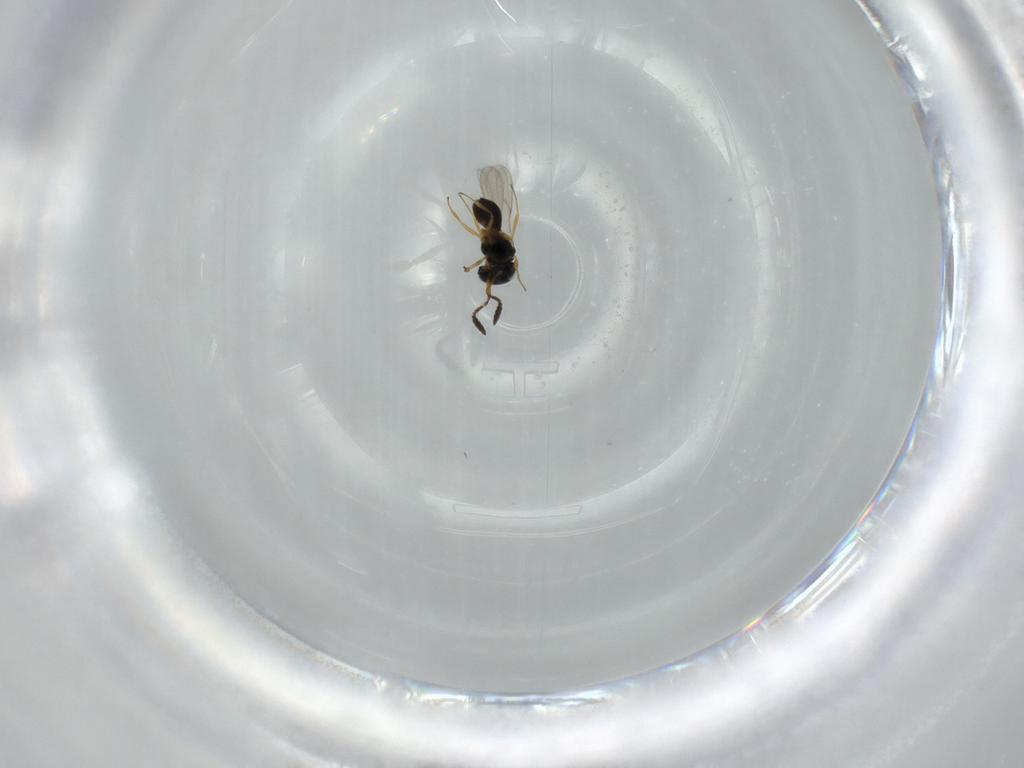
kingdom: Animalia
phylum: Arthropoda
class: Insecta
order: Hymenoptera
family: Scelionidae
